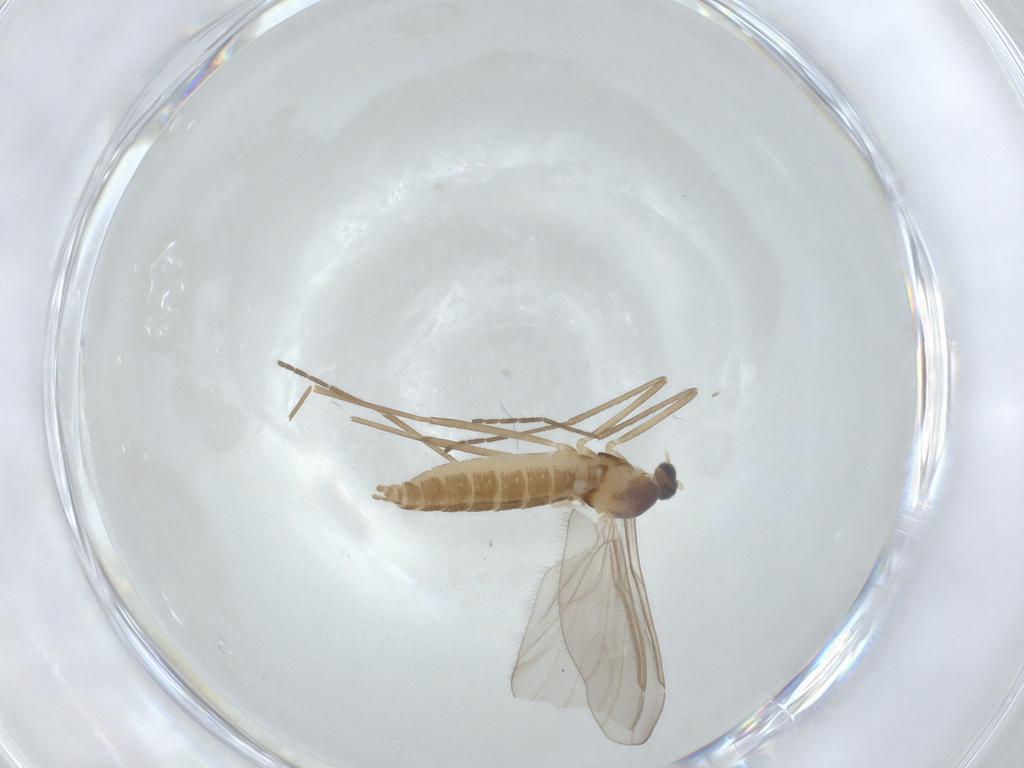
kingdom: Animalia
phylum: Arthropoda
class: Insecta
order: Diptera
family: Cecidomyiidae
